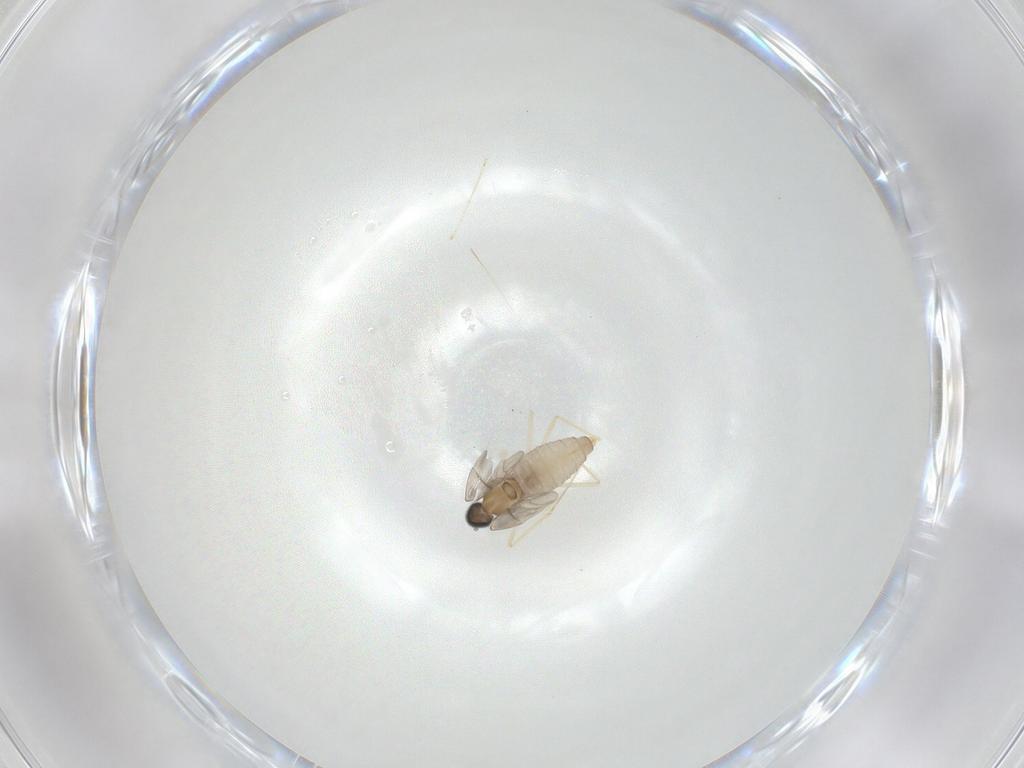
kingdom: Animalia
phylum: Arthropoda
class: Insecta
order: Diptera
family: Cecidomyiidae
